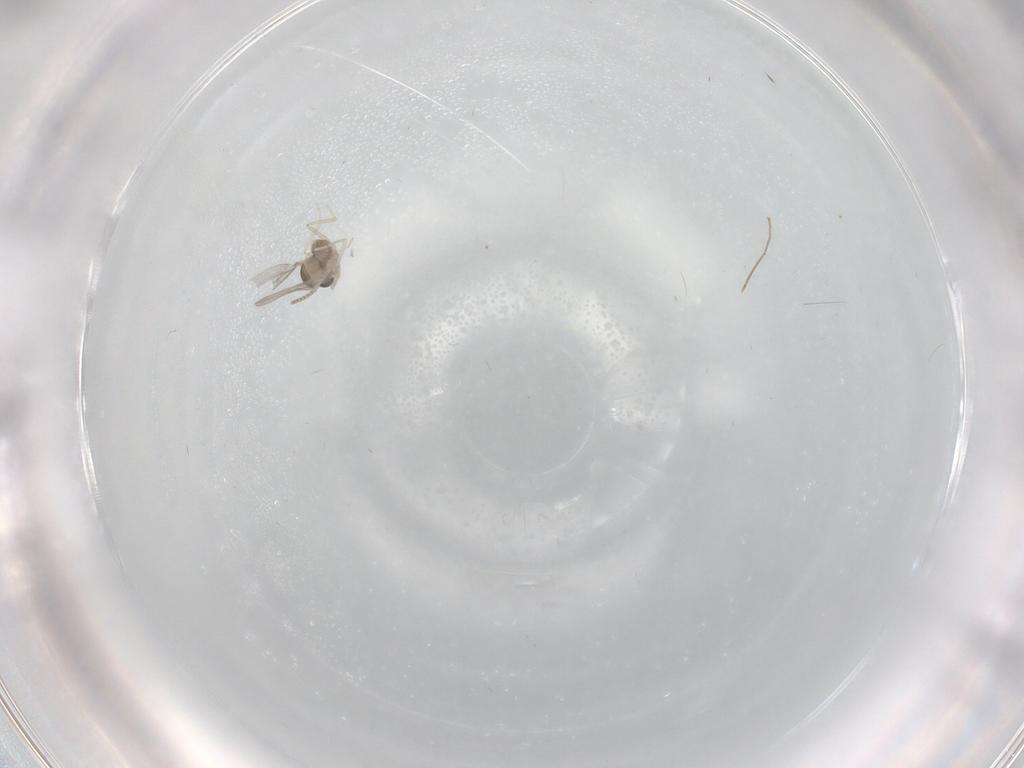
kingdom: Animalia
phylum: Arthropoda
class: Insecta
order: Diptera
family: Cecidomyiidae
